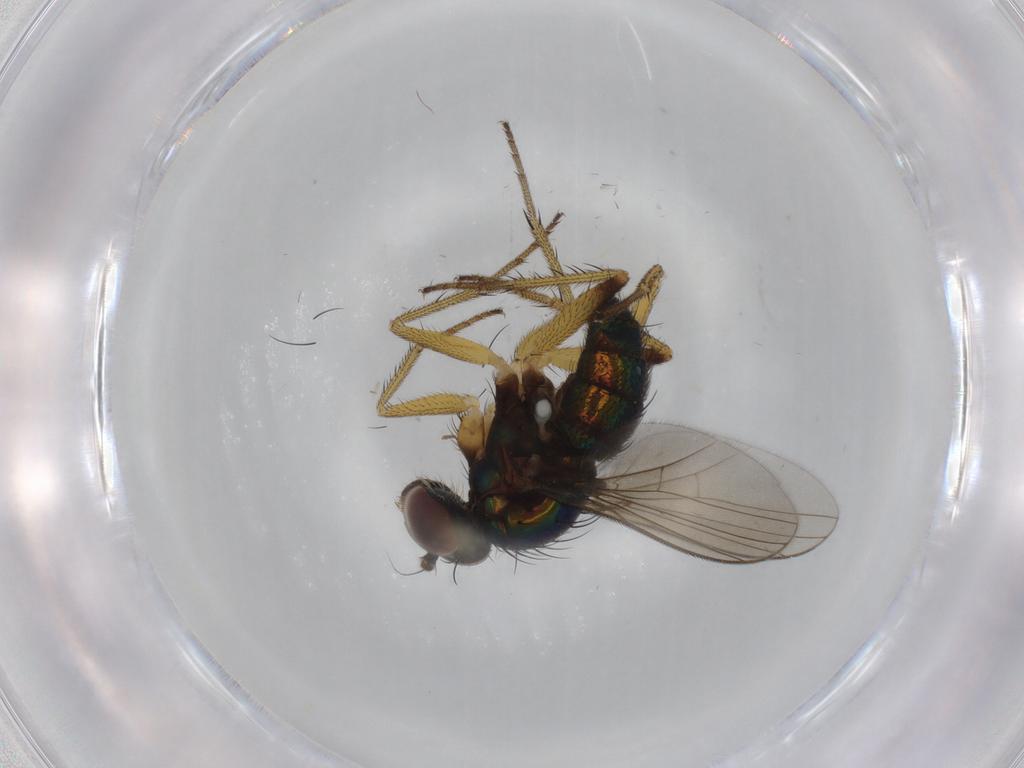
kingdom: Animalia
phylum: Arthropoda
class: Insecta
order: Diptera
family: Dolichopodidae
